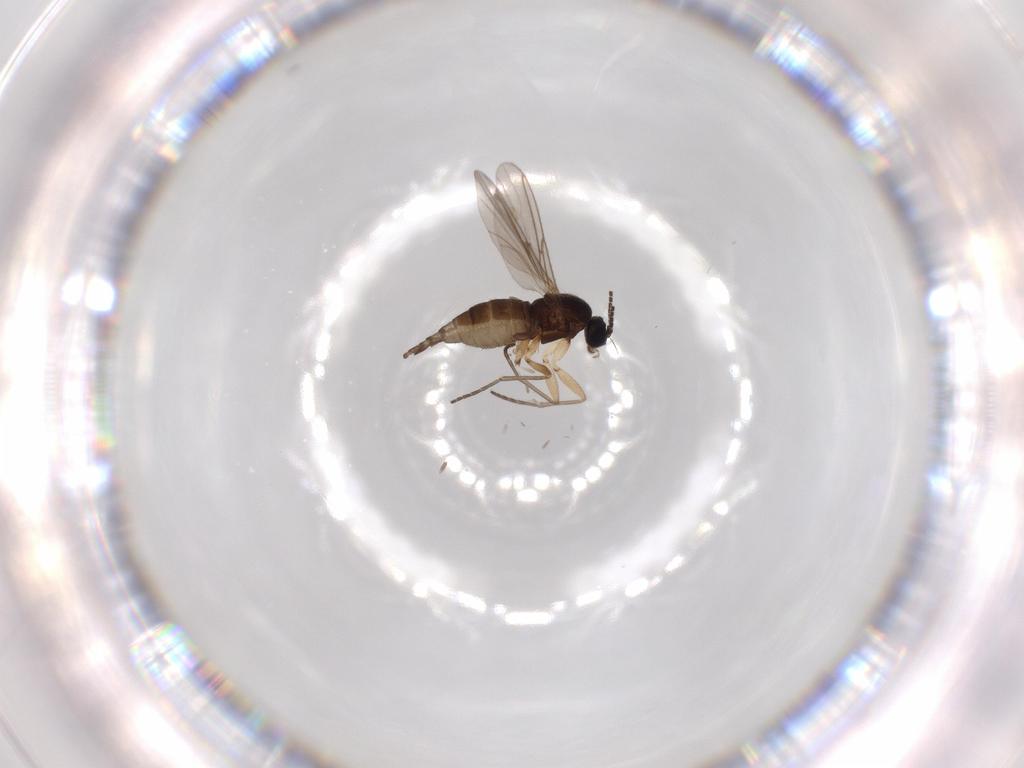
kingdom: Animalia
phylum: Arthropoda
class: Insecta
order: Diptera
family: Sciaridae
